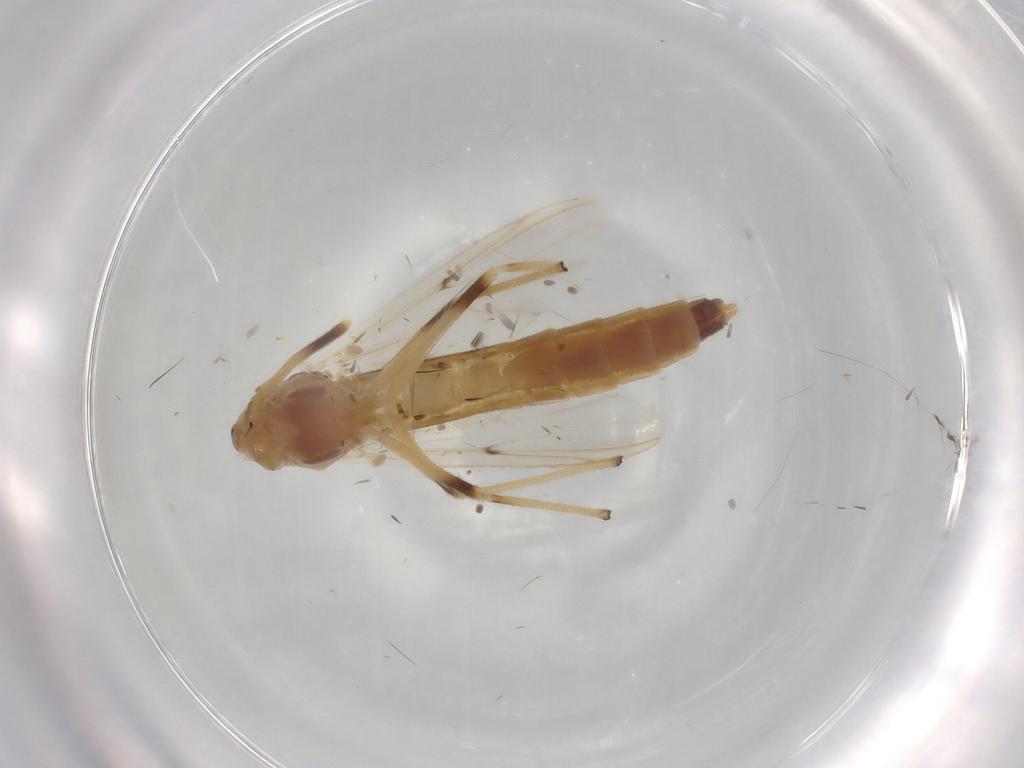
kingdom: Animalia
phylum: Arthropoda
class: Insecta
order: Diptera
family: Chironomidae
